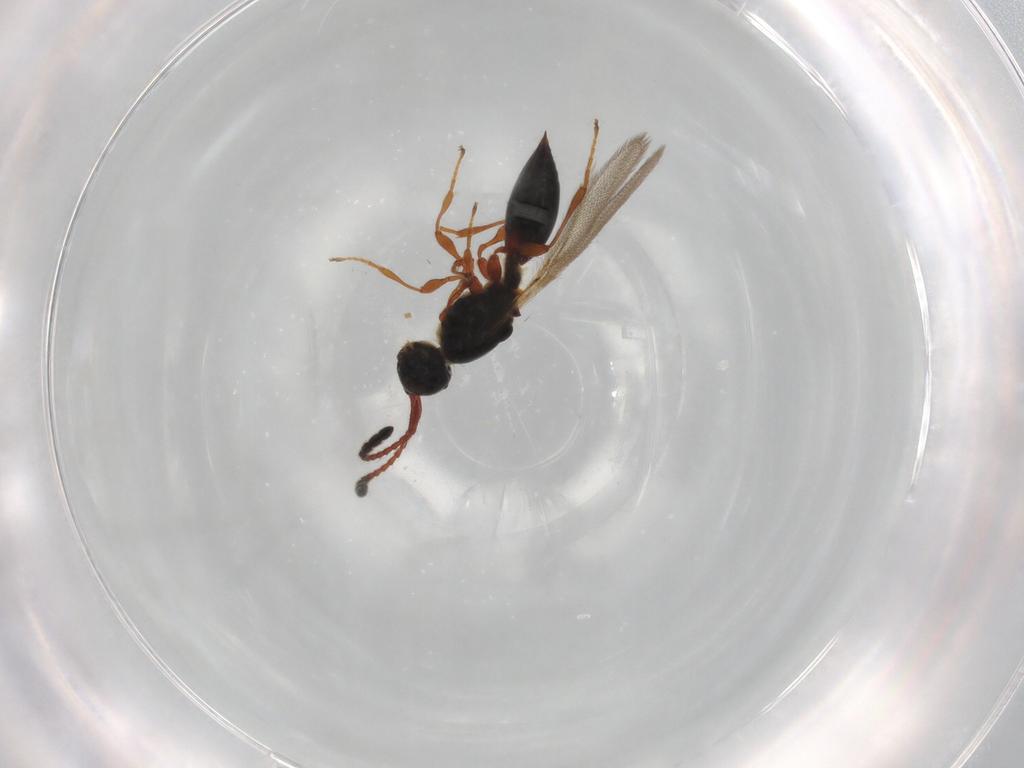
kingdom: Animalia
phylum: Arthropoda
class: Insecta
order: Hymenoptera
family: Diapriidae
